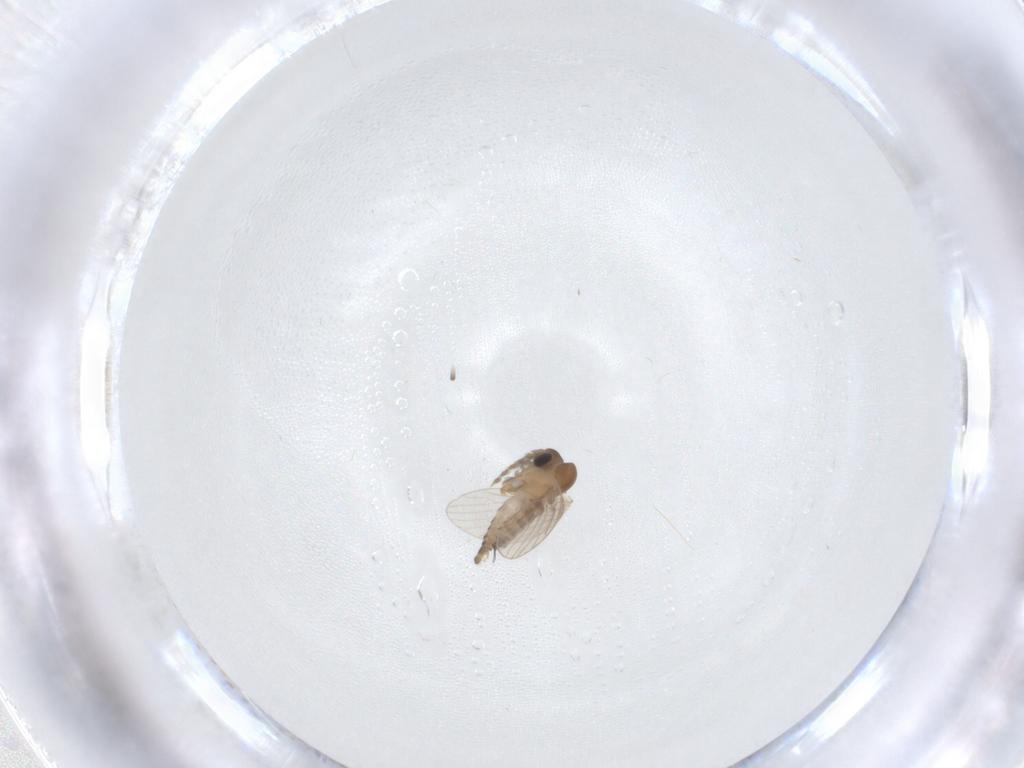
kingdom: Animalia
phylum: Arthropoda
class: Insecta
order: Diptera
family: Psychodidae
